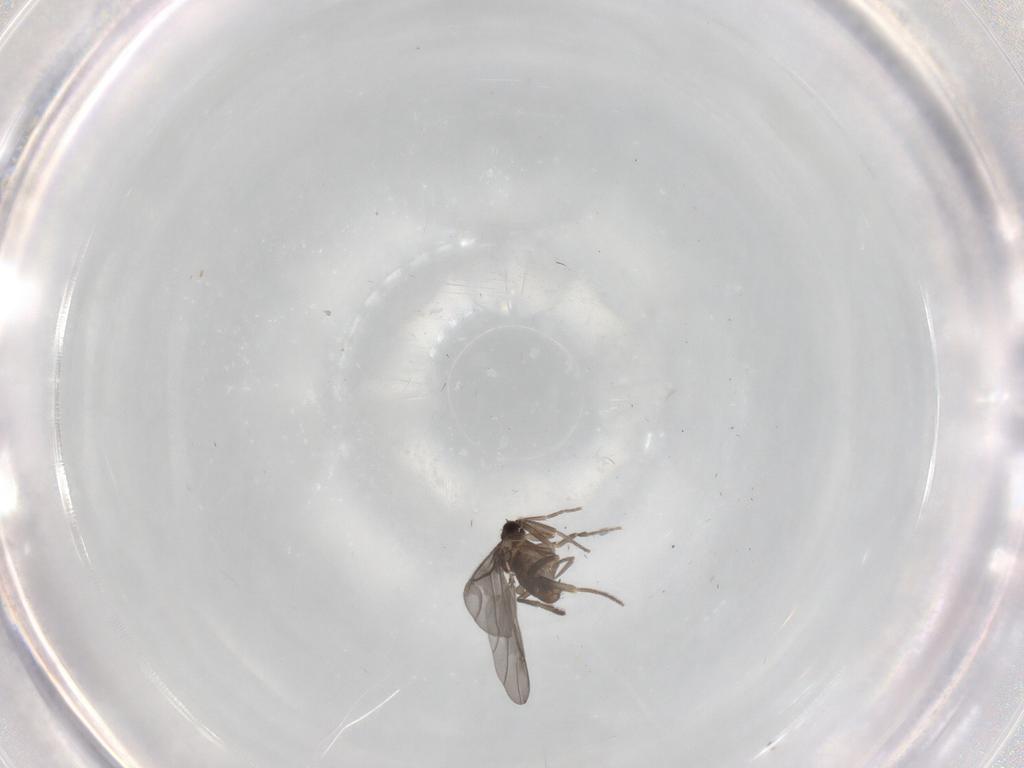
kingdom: Animalia
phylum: Arthropoda
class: Insecta
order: Diptera
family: Phoridae
